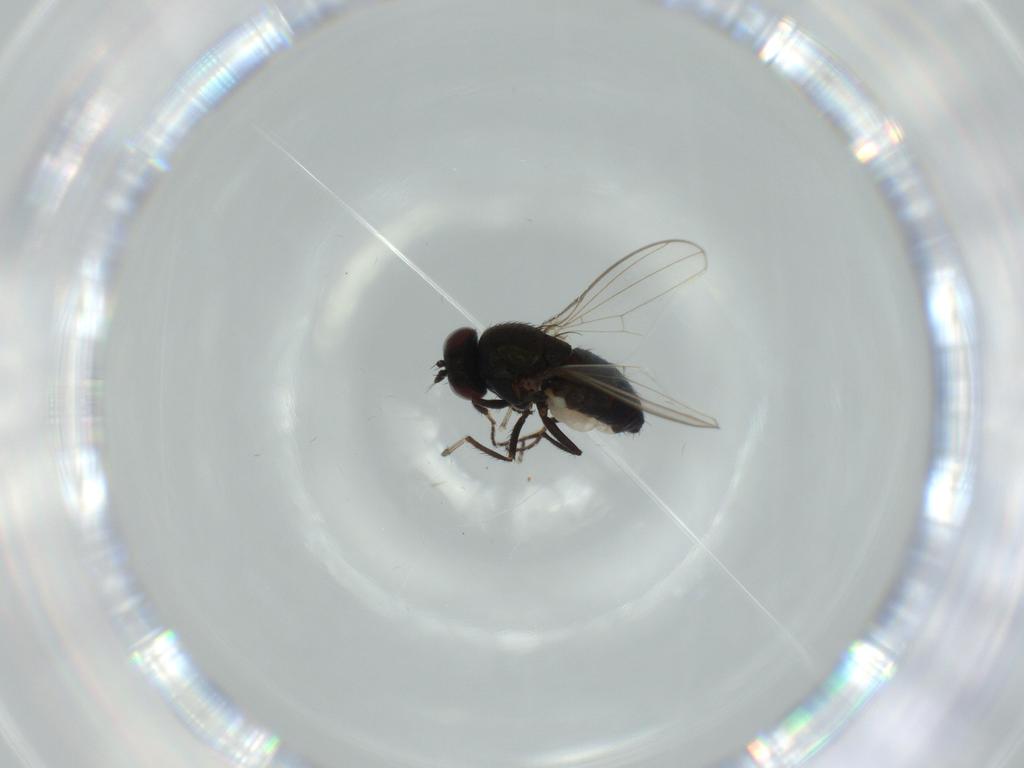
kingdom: Animalia
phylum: Arthropoda
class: Insecta
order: Diptera
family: Ephydridae
